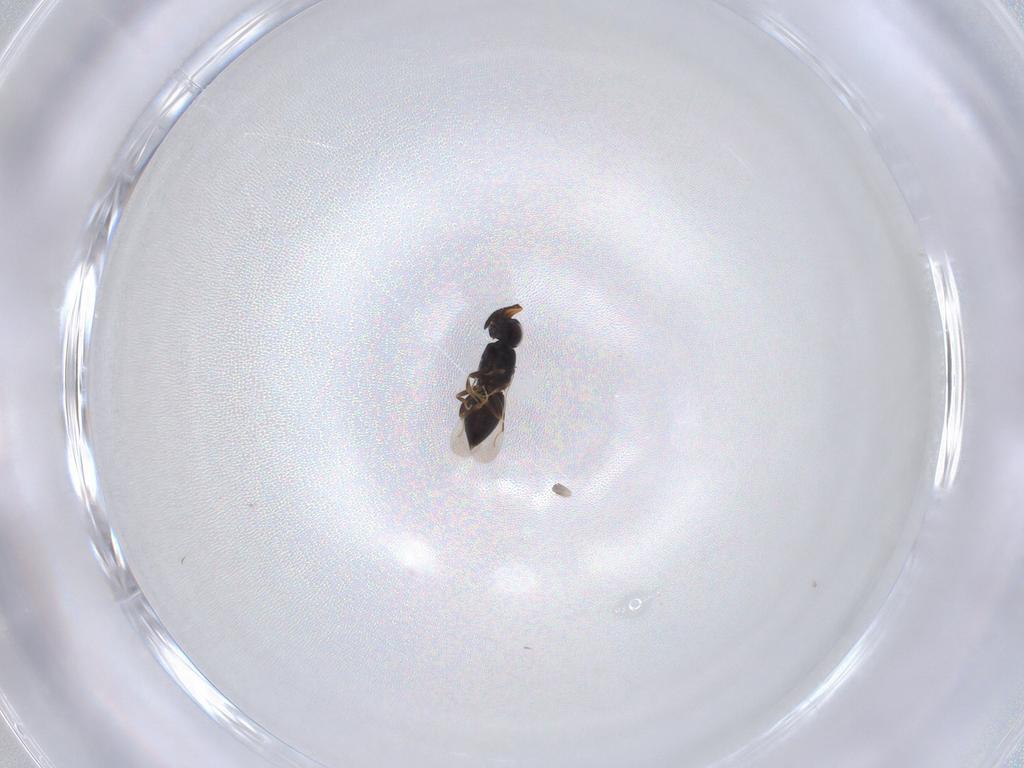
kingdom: Animalia
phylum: Arthropoda
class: Insecta
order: Hymenoptera
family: Ceraphronidae
